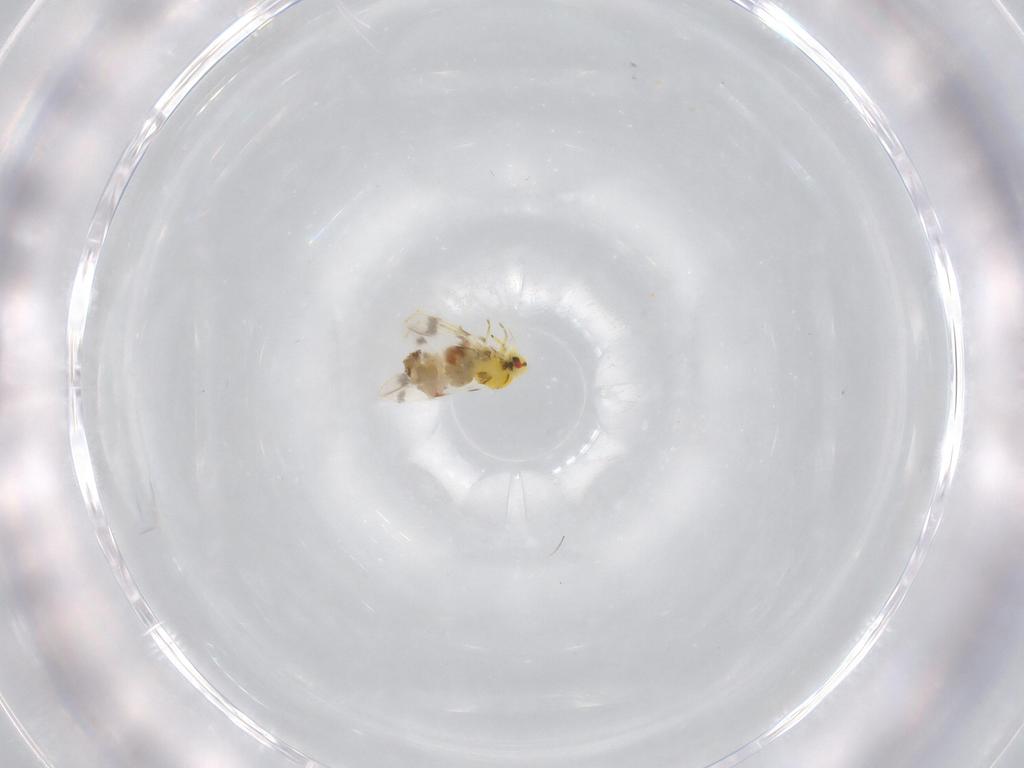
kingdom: Animalia
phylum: Arthropoda
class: Insecta
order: Hemiptera
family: Aleyrodidae
